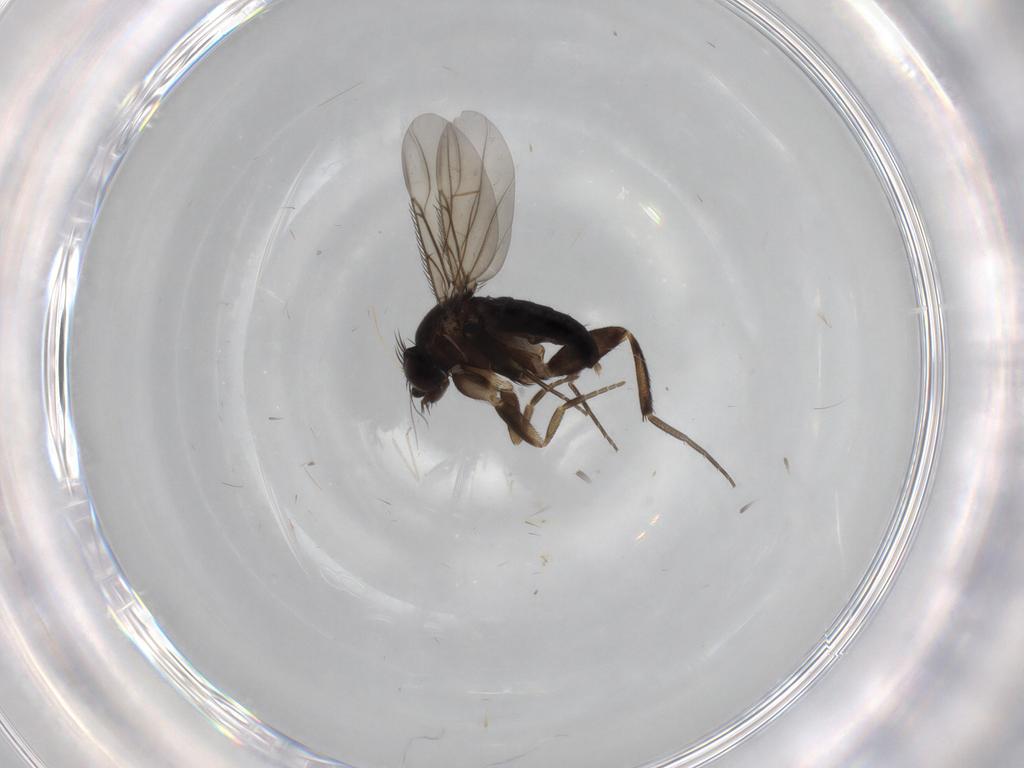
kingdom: Animalia
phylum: Arthropoda
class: Insecta
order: Diptera
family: Phoridae
